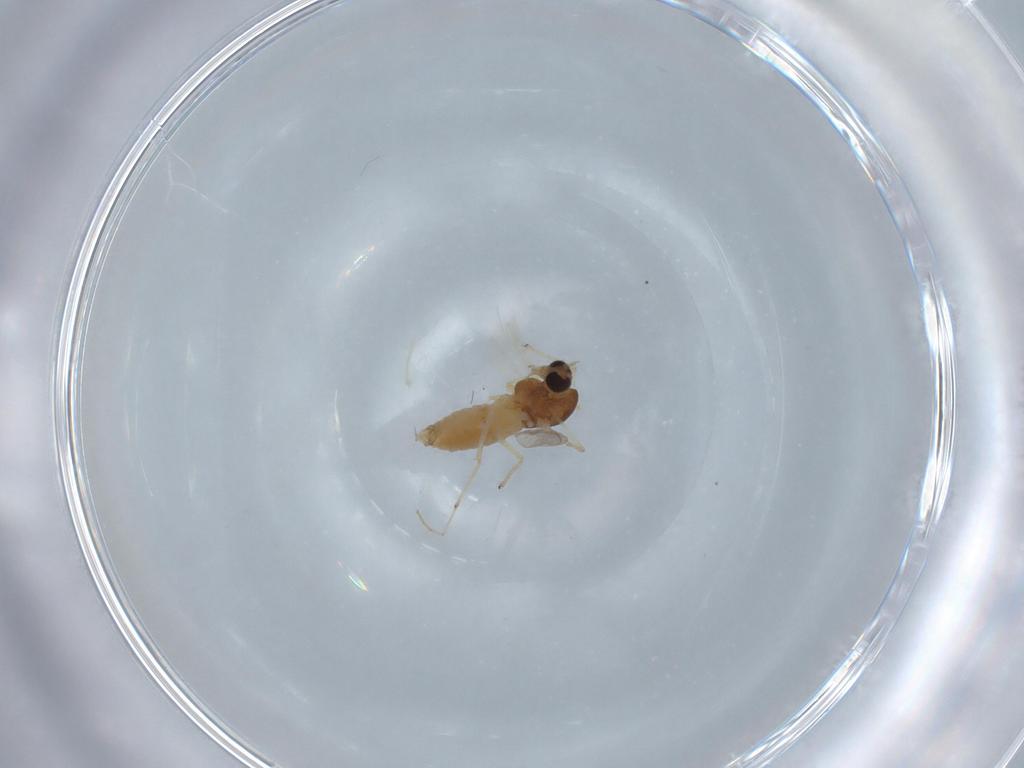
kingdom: Animalia
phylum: Arthropoda
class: Insecta
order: Diptera
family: Chironomidae
